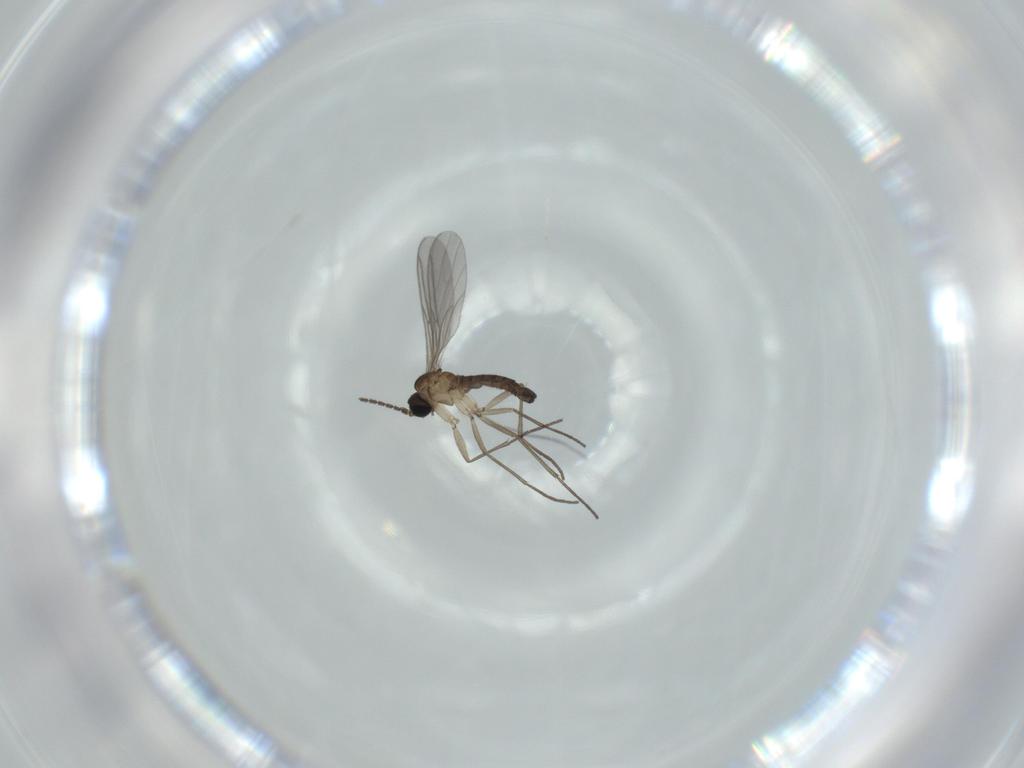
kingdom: Animalia
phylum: Arthropoda
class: Insecta
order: Diptera
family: Sciaridae
